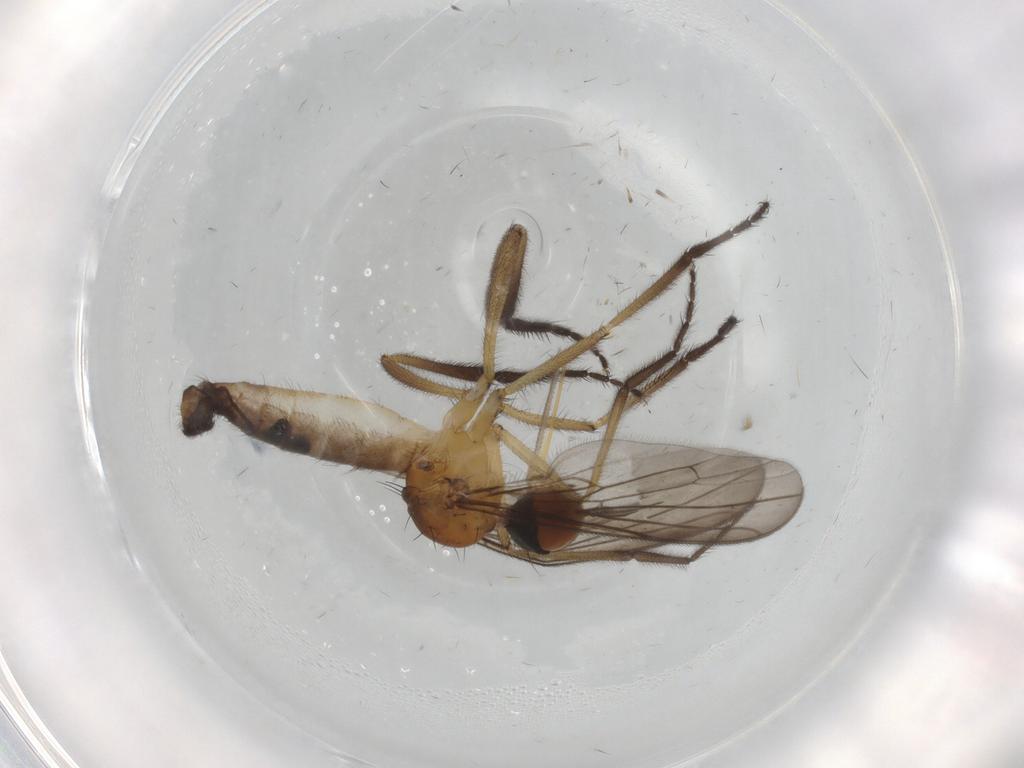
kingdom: Animalia
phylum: Arthropoda
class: Insecta
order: Diptera
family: Empididae
